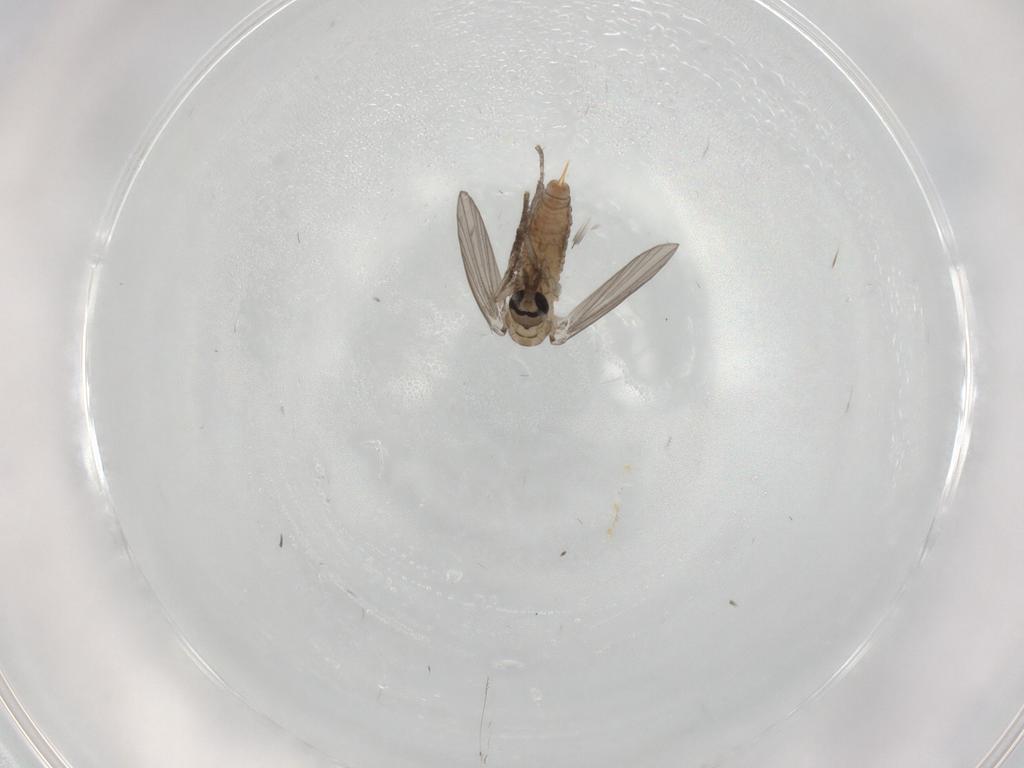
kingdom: Animalia
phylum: Arthropoda
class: Insecta
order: Diptera
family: Psychodidae
